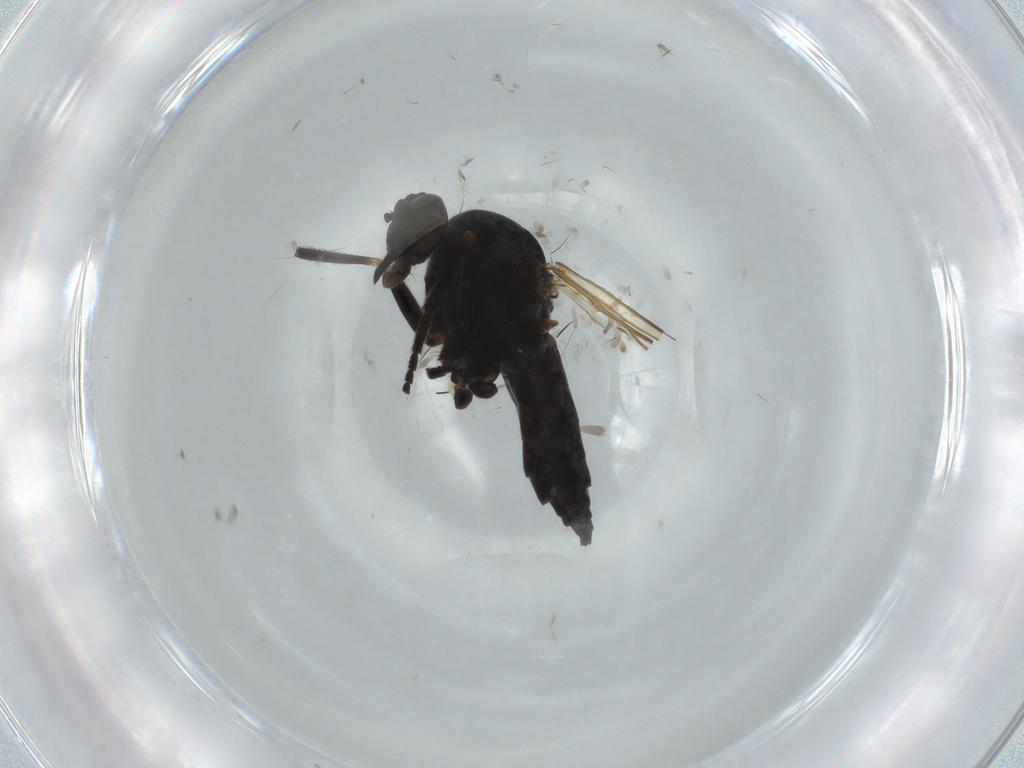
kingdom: Animalia
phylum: Arthropoda
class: Insecta
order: Diptera
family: Empididae
